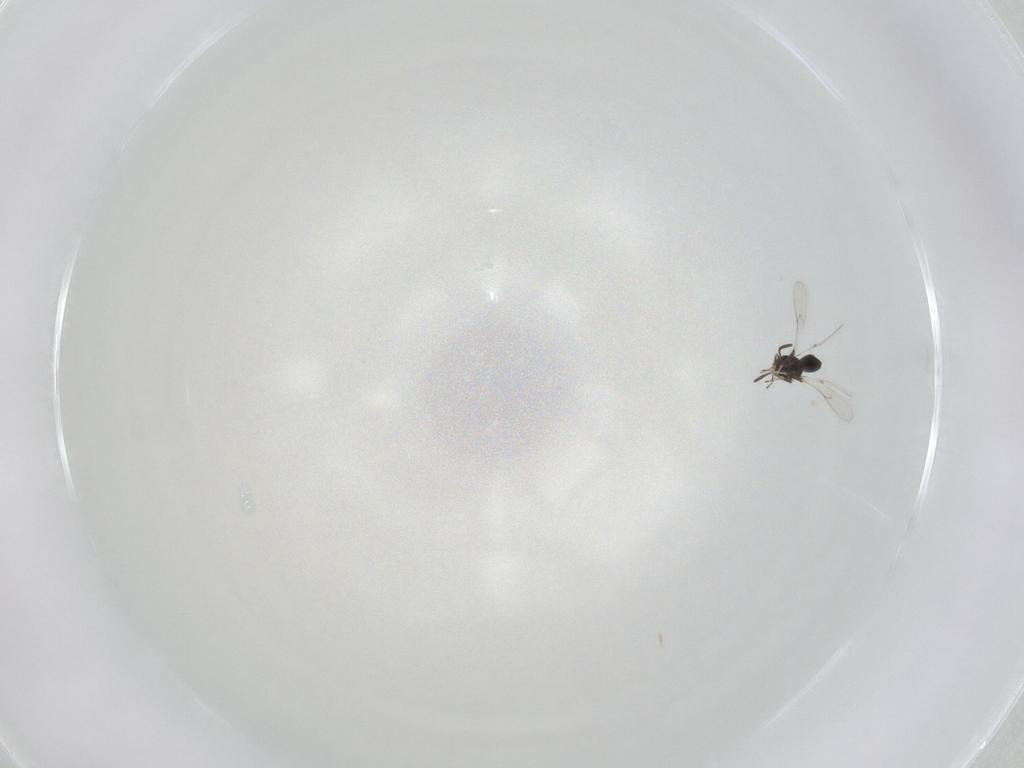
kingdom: Animalia
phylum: Arthropoda
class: Insecta
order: Hymenoptera
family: Scelionidae
